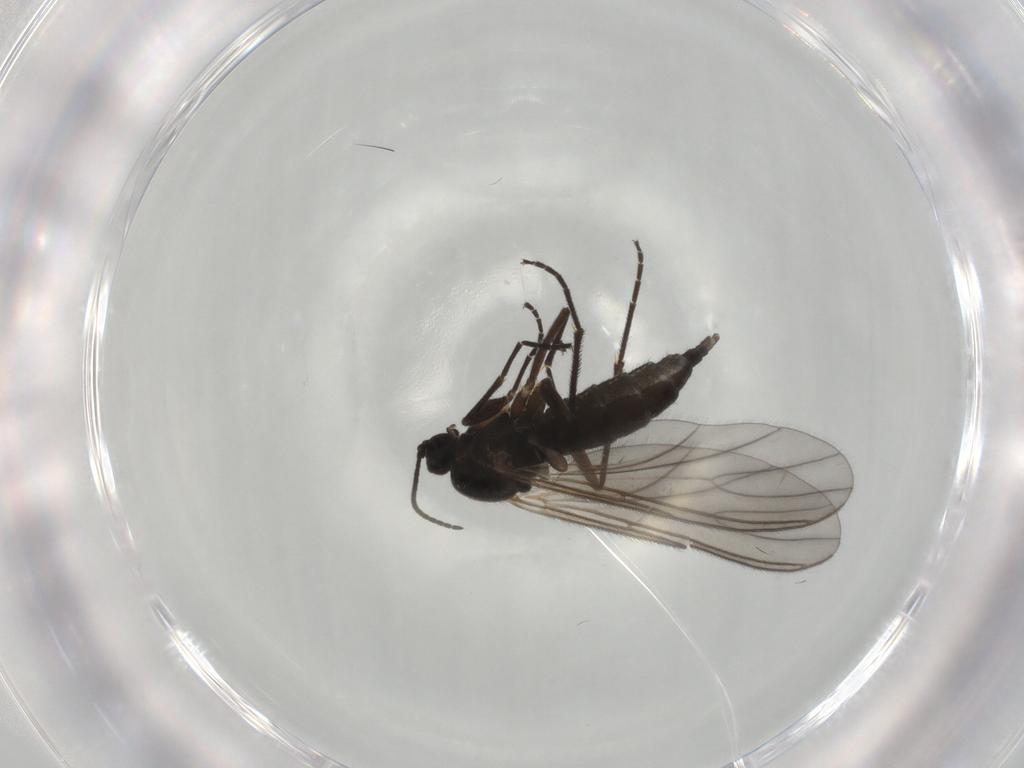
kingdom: Animalia
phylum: Arthropoda
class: Insecta
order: Diptera
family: Sciaridae
